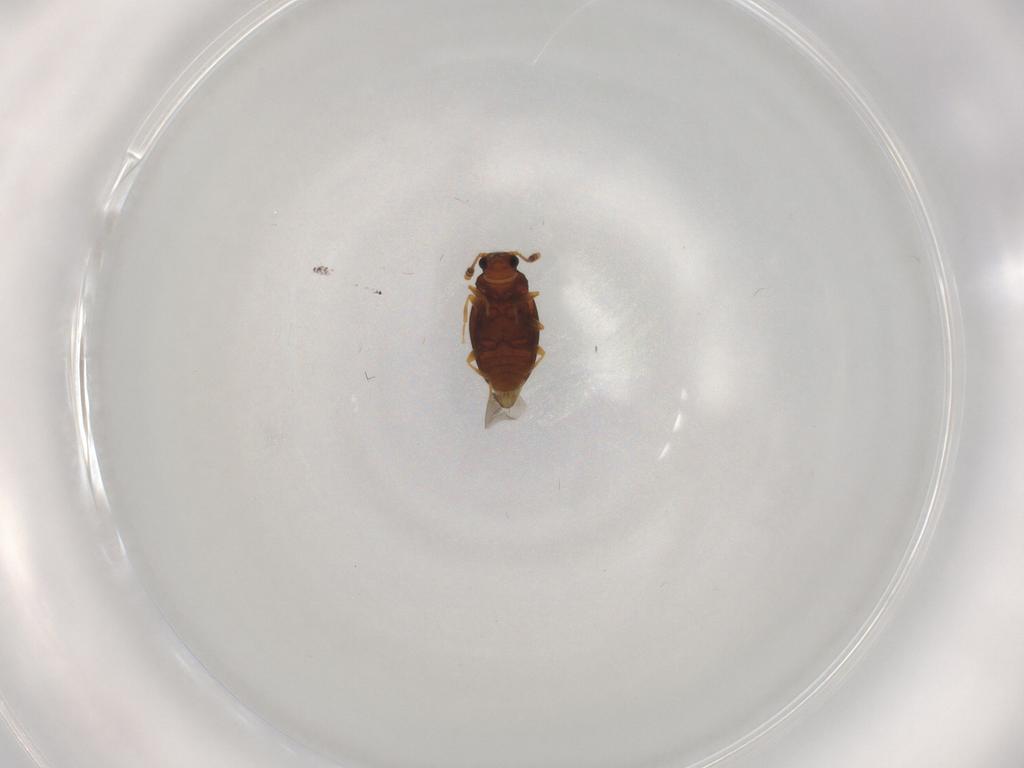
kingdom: Animalia
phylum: Arthropoda
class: Insecta
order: Coleoptera
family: Erotylidae
